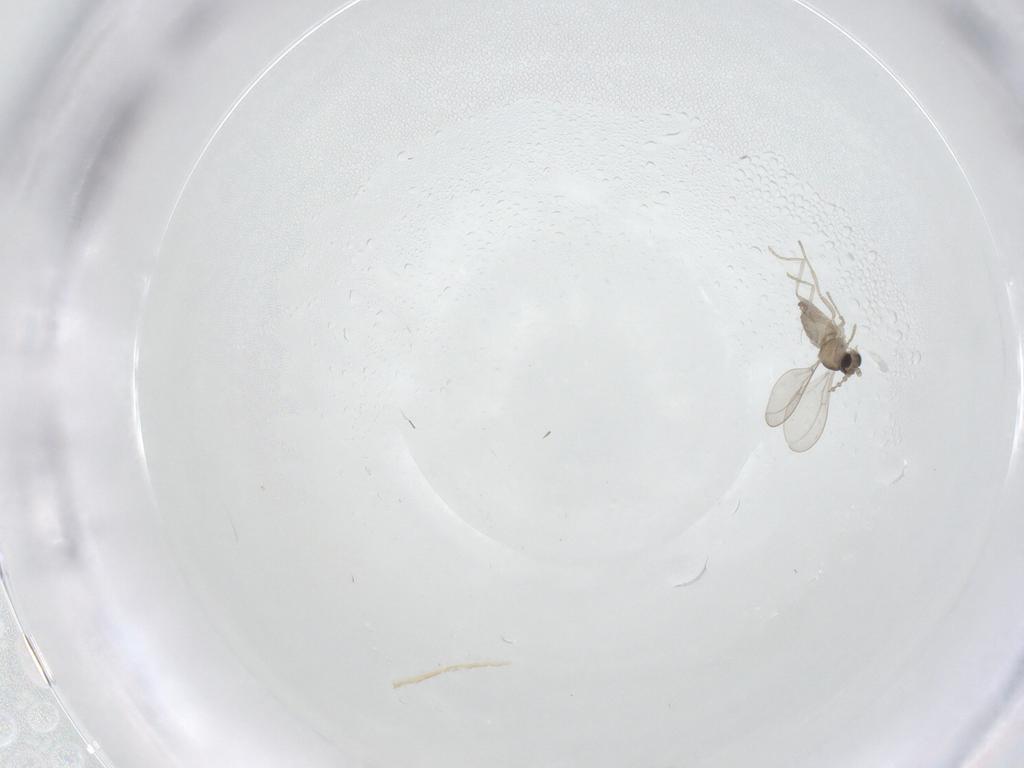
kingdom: Animalia
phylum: Arthropoda
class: Insecta
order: Diptera
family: Cecidomyiidae
